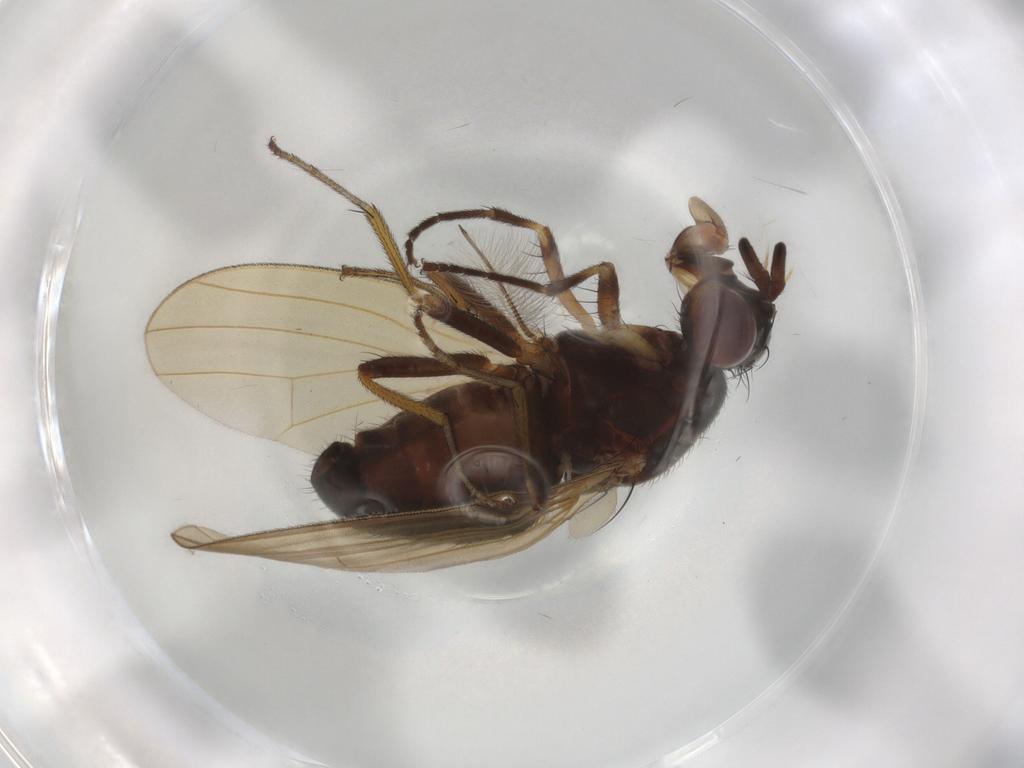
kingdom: Animalia
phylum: Arthropoda
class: Insecta
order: Diptera
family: Phoridae
